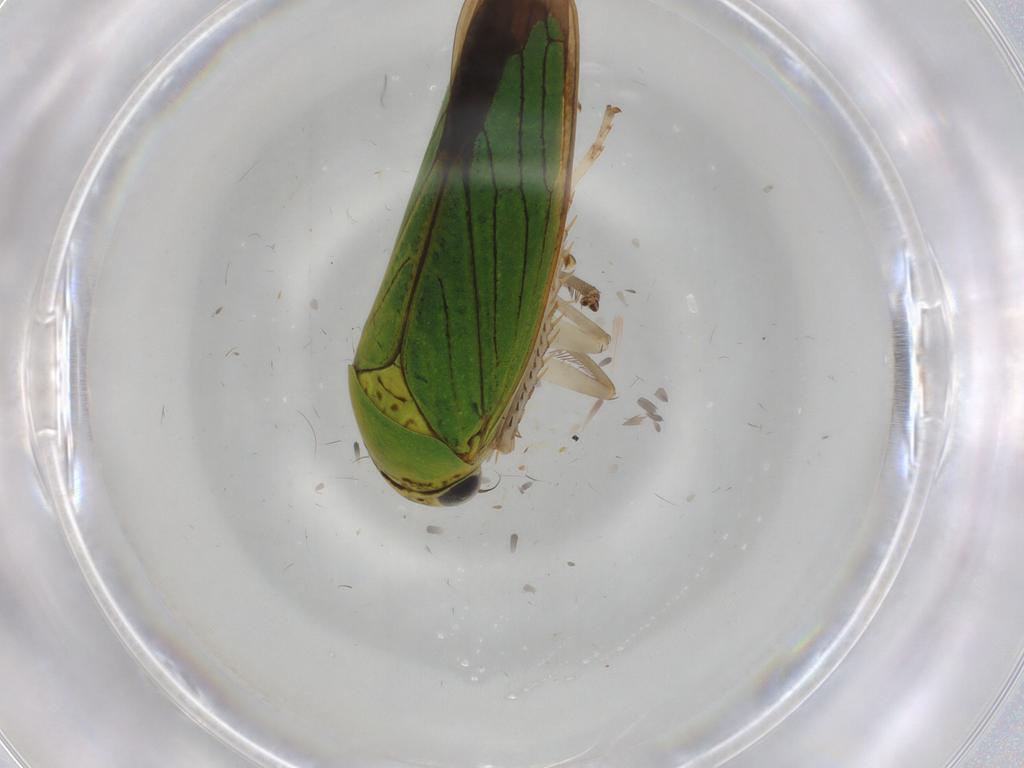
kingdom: Animalia
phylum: Arthropoda
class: Insecta
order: Hemiptera
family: Cicadellidae
